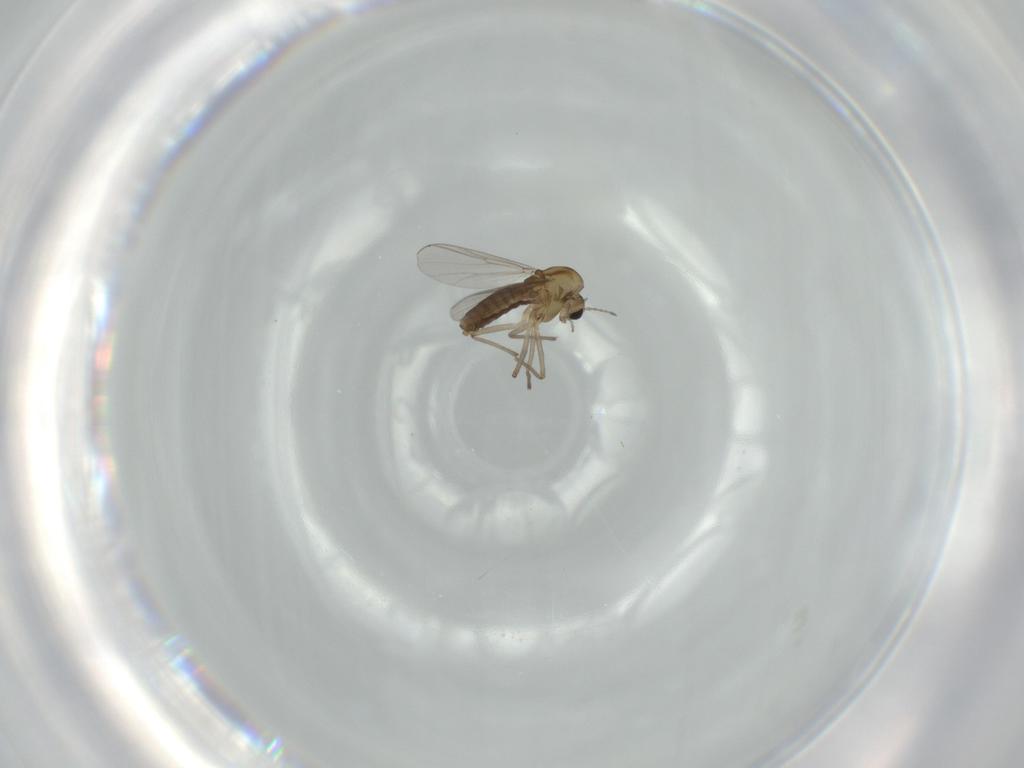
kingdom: Animalia
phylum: Arthropoda
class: Insecta
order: Diptera
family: Chironomidae
